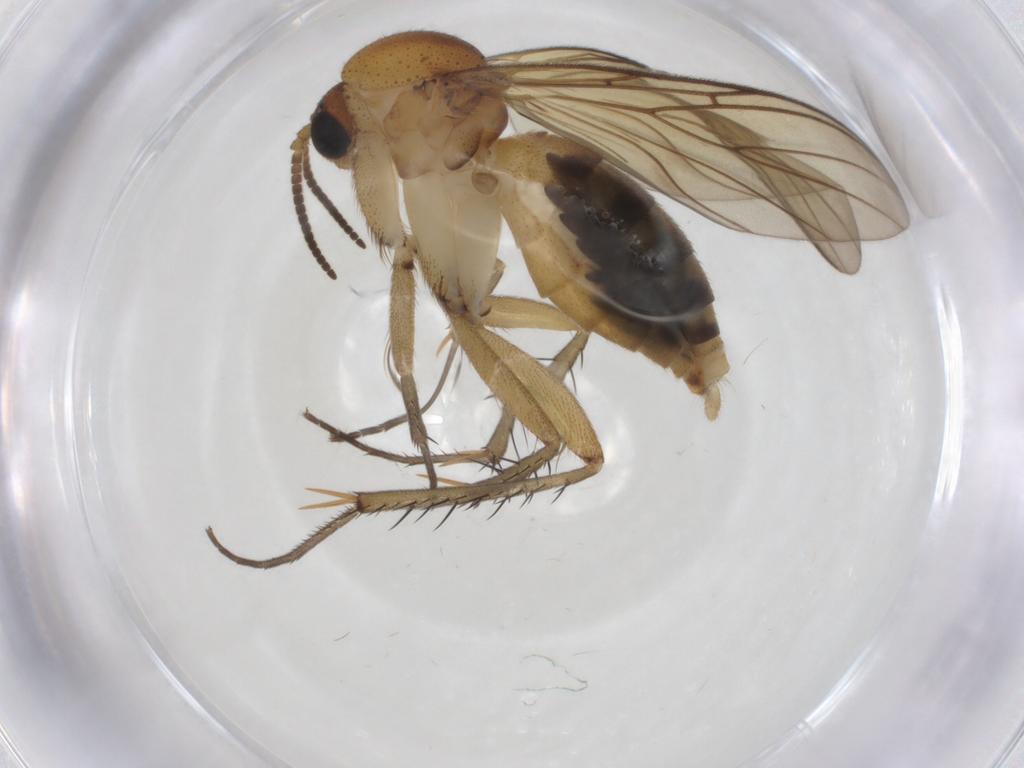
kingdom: Animalia
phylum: Arthropoda
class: Insecta
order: Diptera
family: Mycetophilidae
